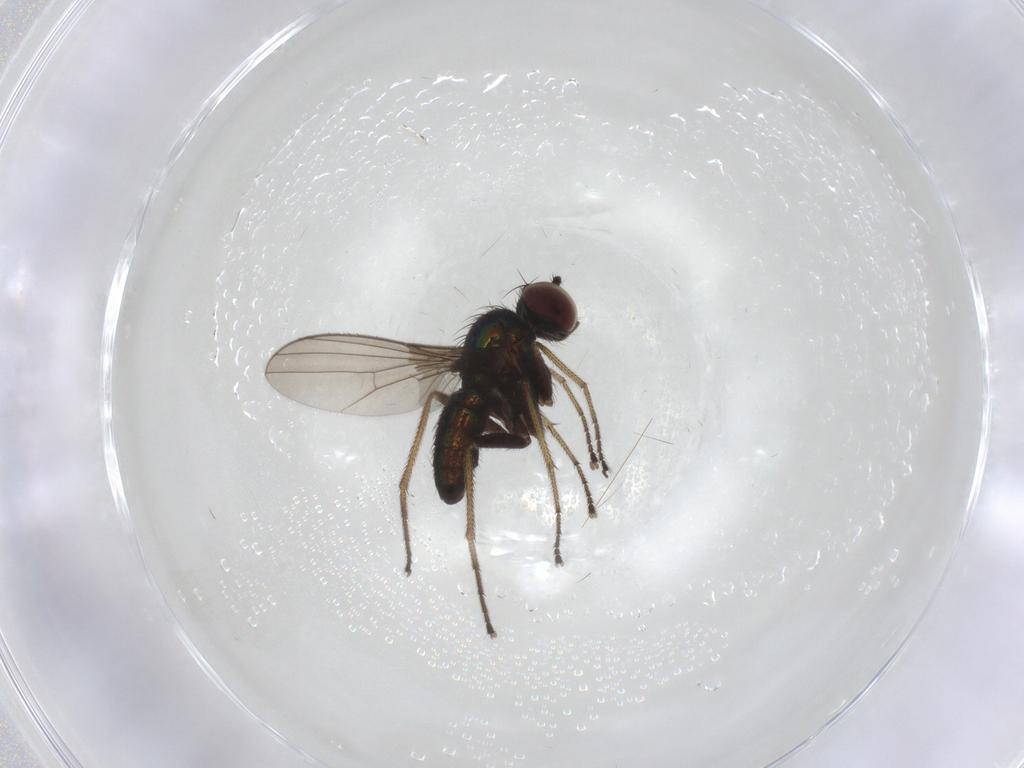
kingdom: Animalia
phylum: Arthropoda
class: Insecta
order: Diptera
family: Dolichopodidae
